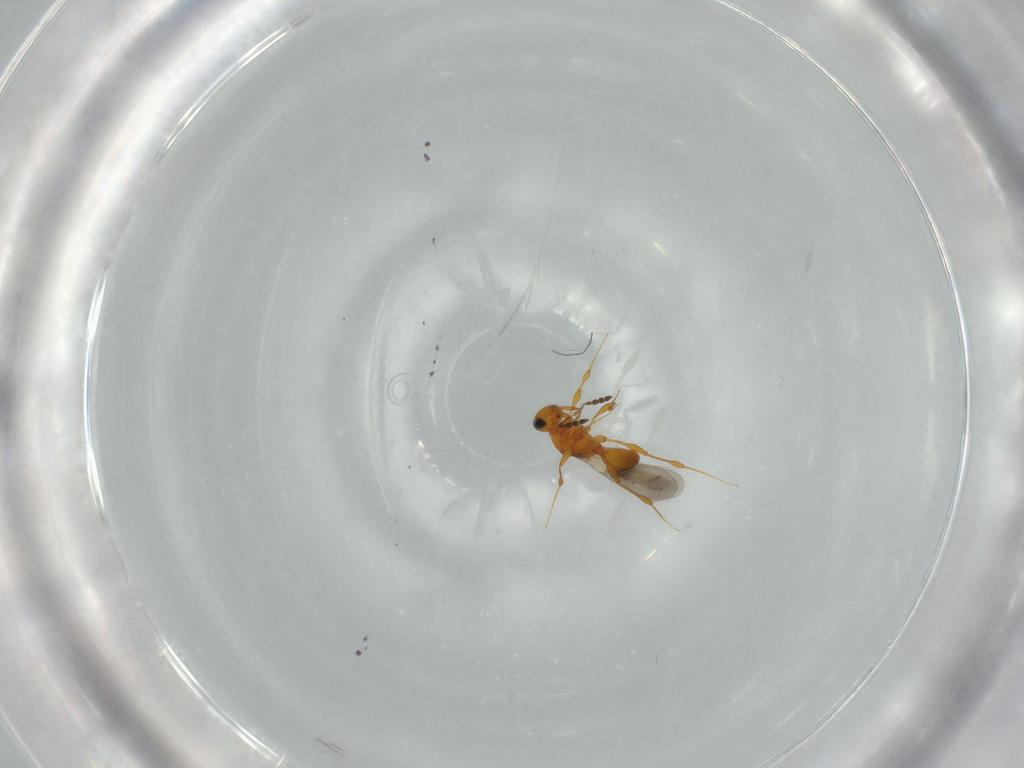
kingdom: Animalia
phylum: Arthropoda
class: Insecta
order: Hymenoptera
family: Platygastridae
